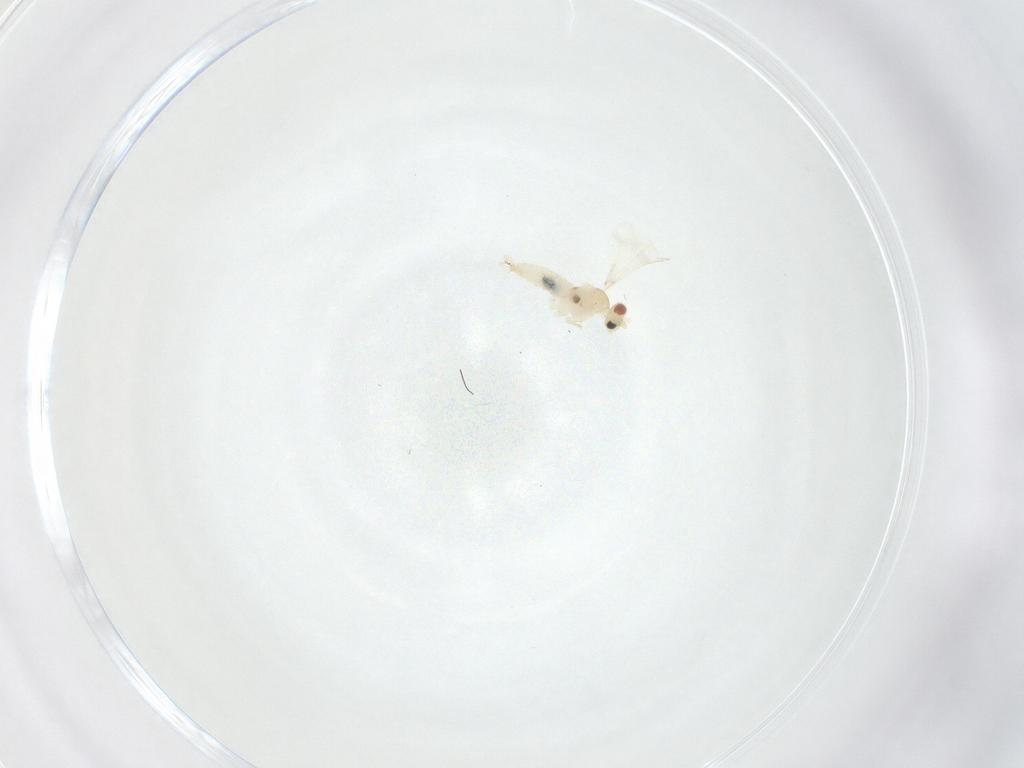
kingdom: Animalia
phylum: Arthropoda
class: Insecta
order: Diptera
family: Cecidomyiidae
